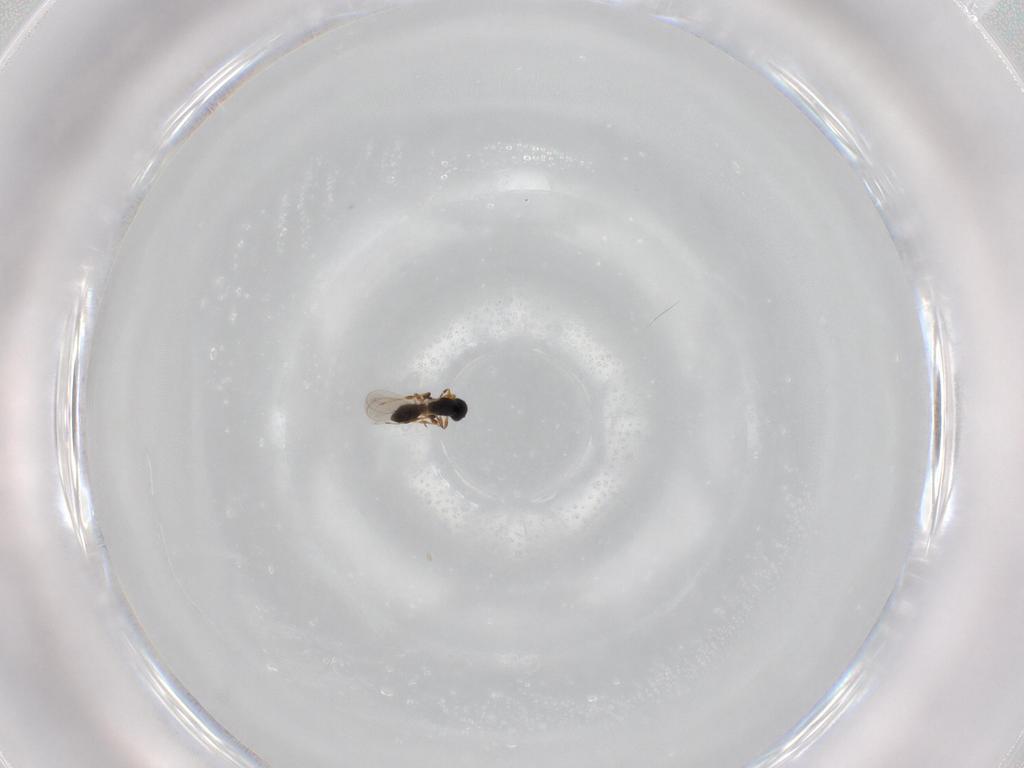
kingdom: Animalia
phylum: Arthropoda
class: Insecta
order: Hymenoptera
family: Platygastridae
